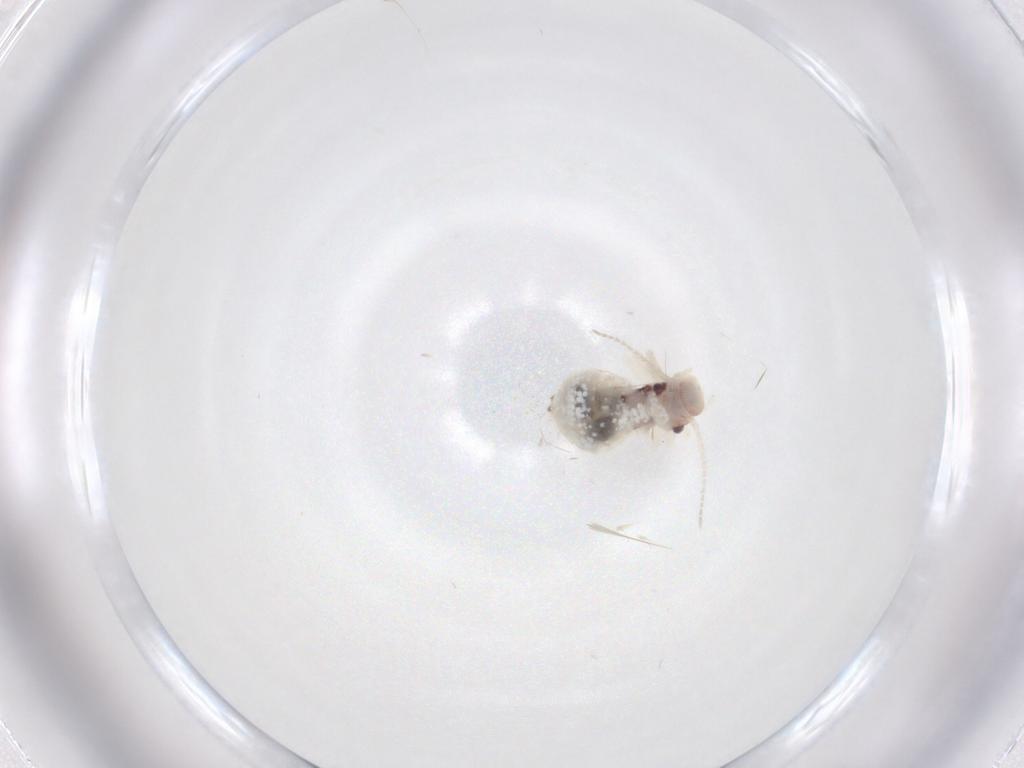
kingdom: Animalia
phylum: Arthropoda
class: Insecta
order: Psocodea
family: Amphipsocidae
